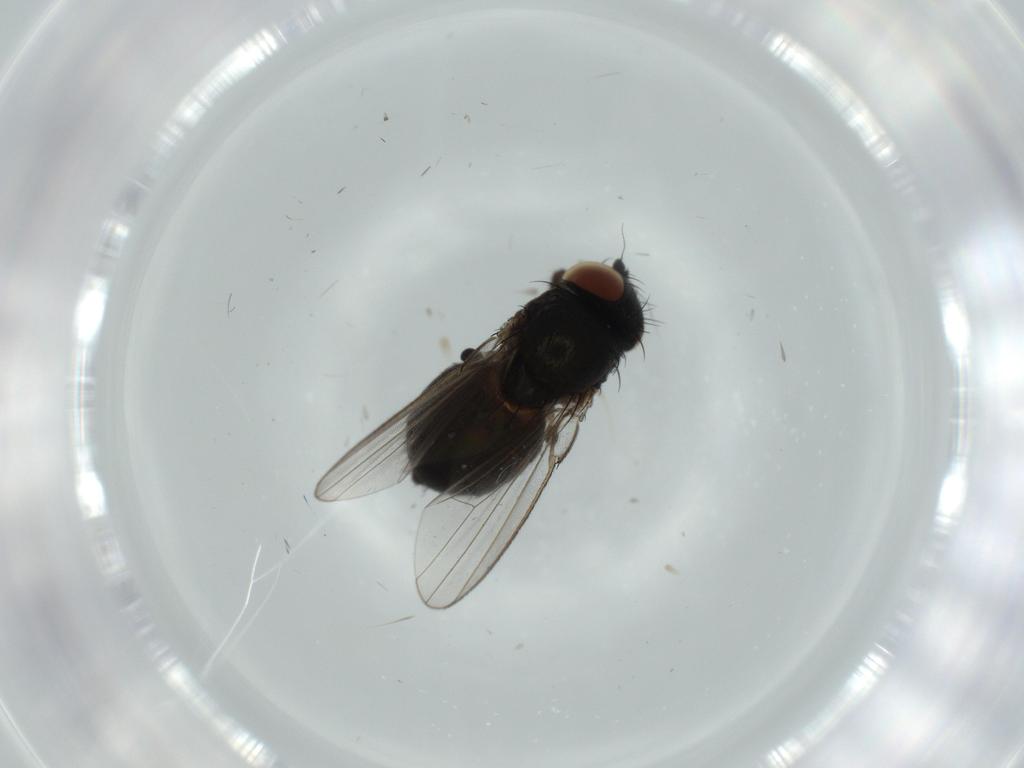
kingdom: Animalia
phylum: Arthropoda
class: Insecta
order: Diptera
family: Milichiidae
